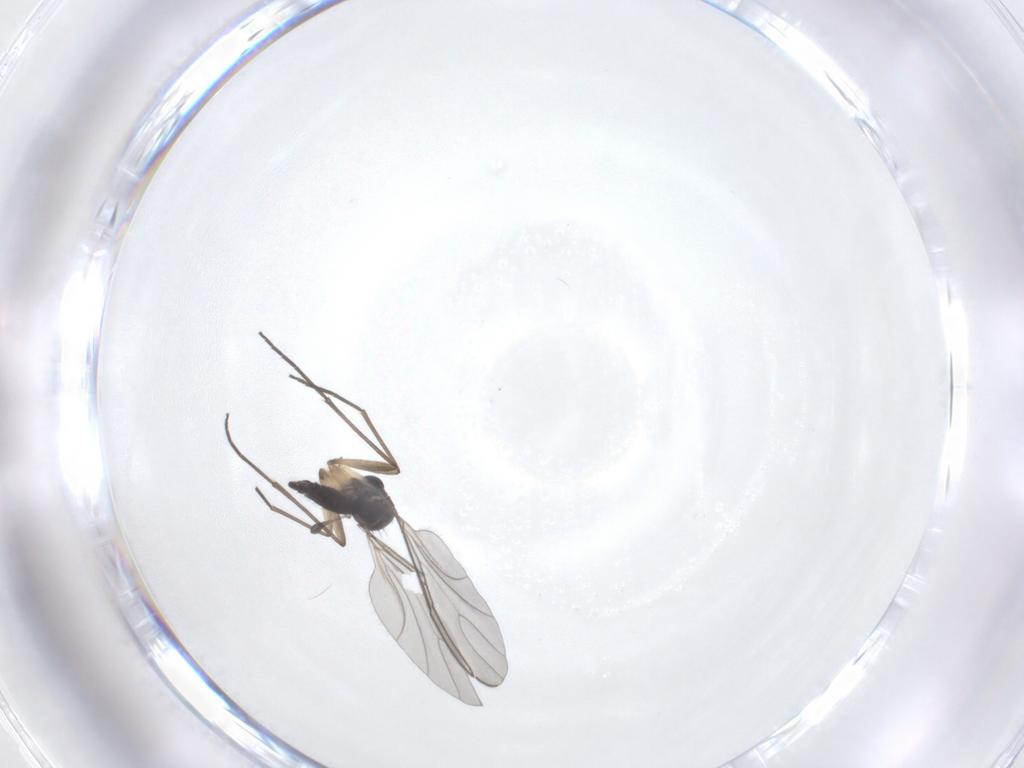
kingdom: Animalia
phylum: Arthropoda
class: Insecta
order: Diptera
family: Sciaridae
